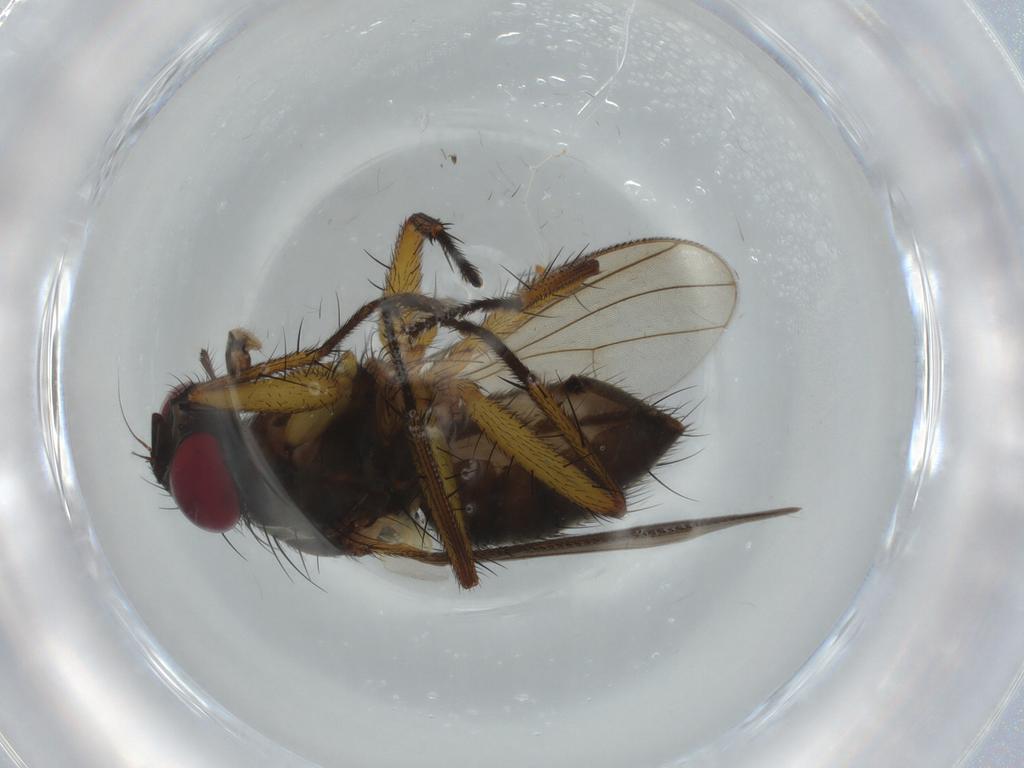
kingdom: Animalia
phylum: Arthropoda
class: Insecta
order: Diptera
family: Muscidae
